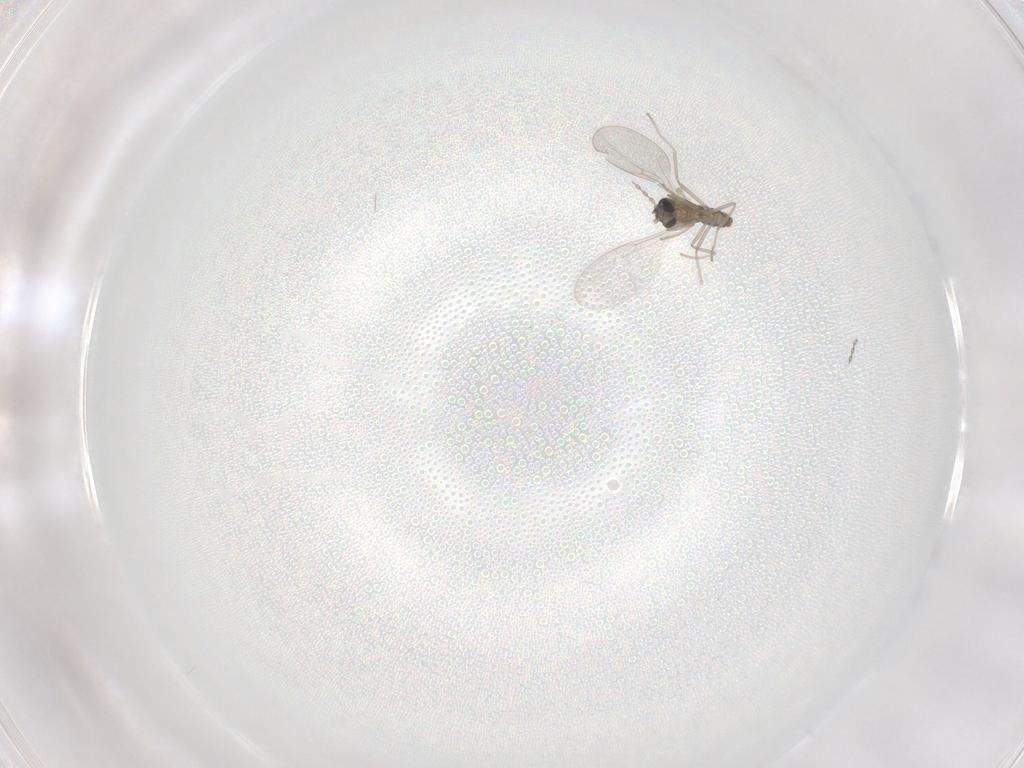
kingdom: Animalia
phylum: Arthropoda
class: Insecta
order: Diptera
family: Cecidomyiidae
